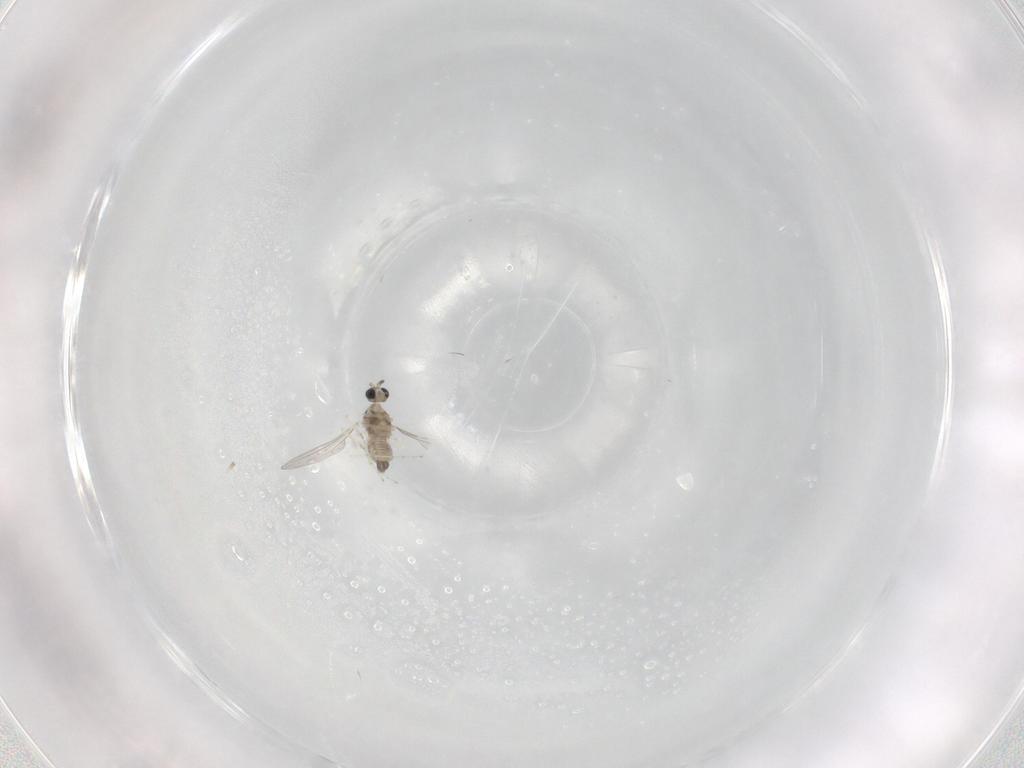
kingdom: Animalia
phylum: Arthropoda
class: Insecta
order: Diptera
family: Cecidomyiidae
